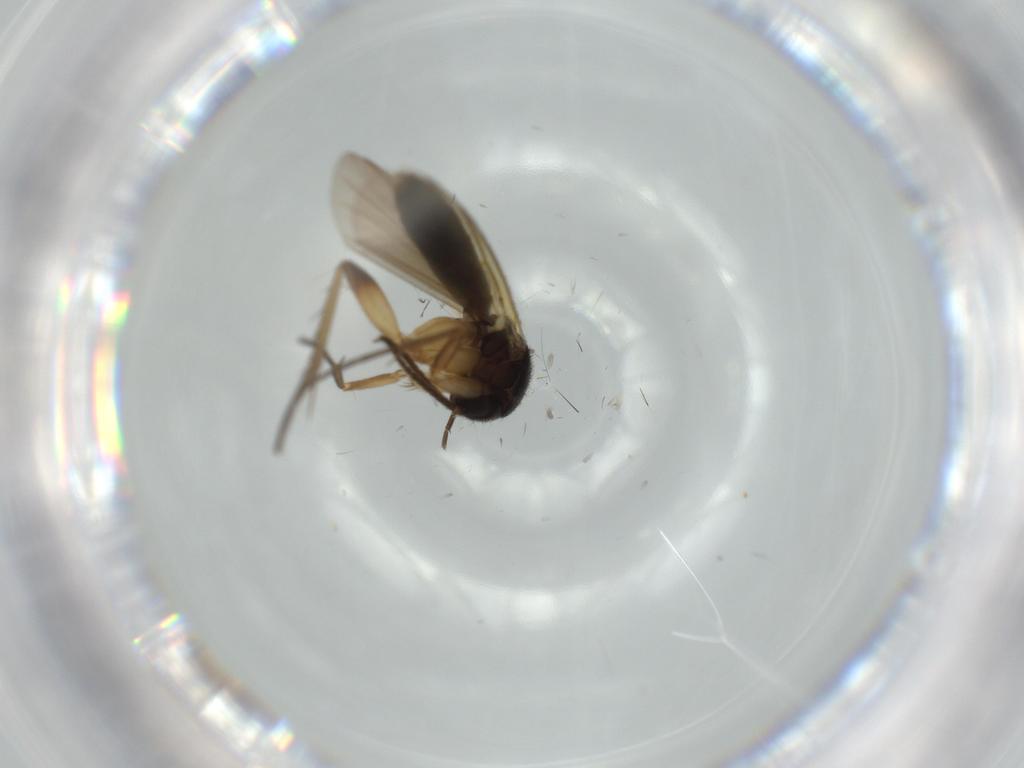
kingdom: Animalia
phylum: Arthropoda
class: Insecta
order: Diptera
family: Mycetophilidae
